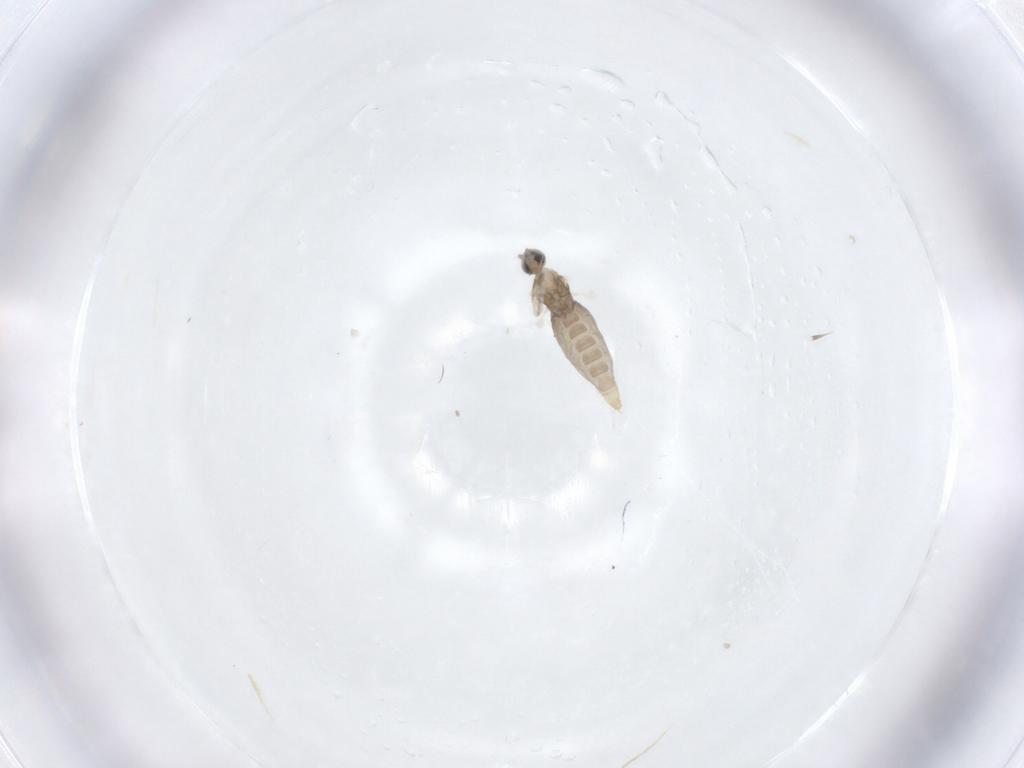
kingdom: Animalia
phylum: Arthropoda
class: Insecta
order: Diptera
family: Cecidomyiidae
